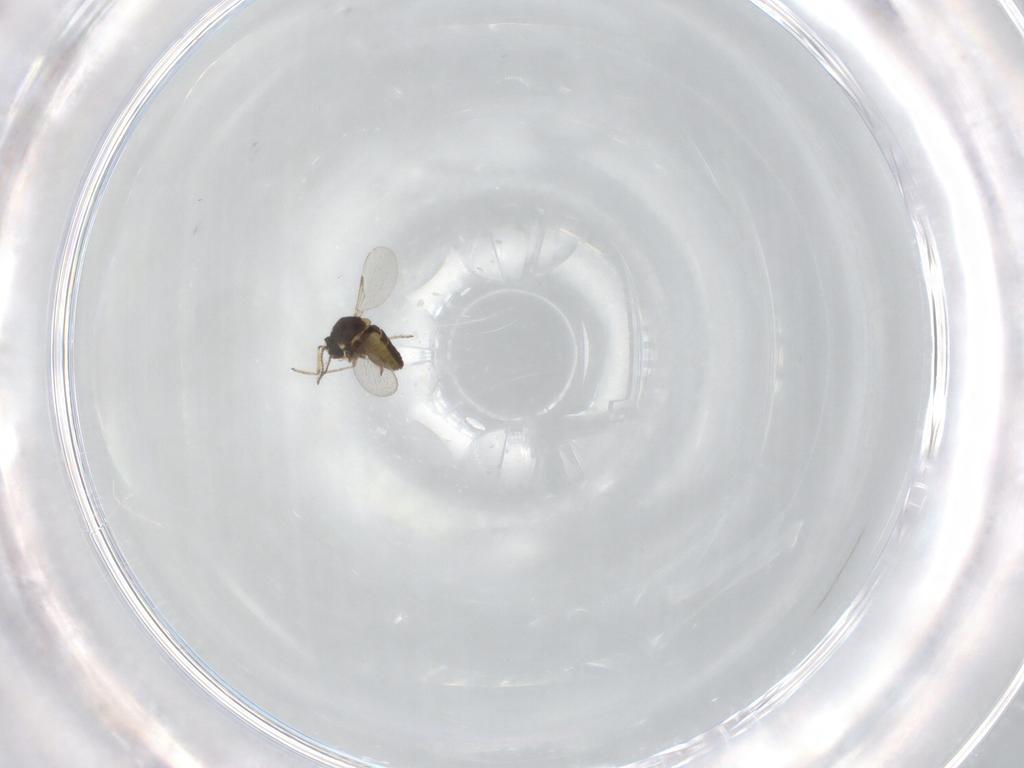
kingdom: Animalia
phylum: Arthropoda
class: Insecta
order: Diptera
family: Ceratopogonidae
